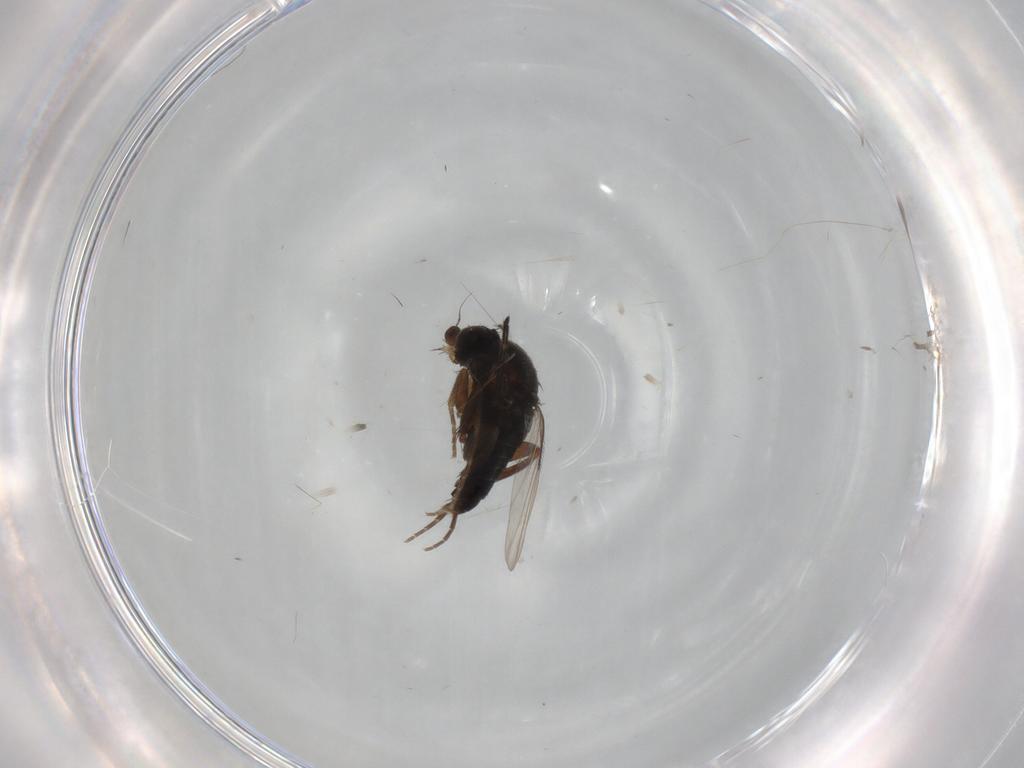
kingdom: Animalia
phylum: Arthropoda
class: Insecta
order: Diptera
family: Phoridae
